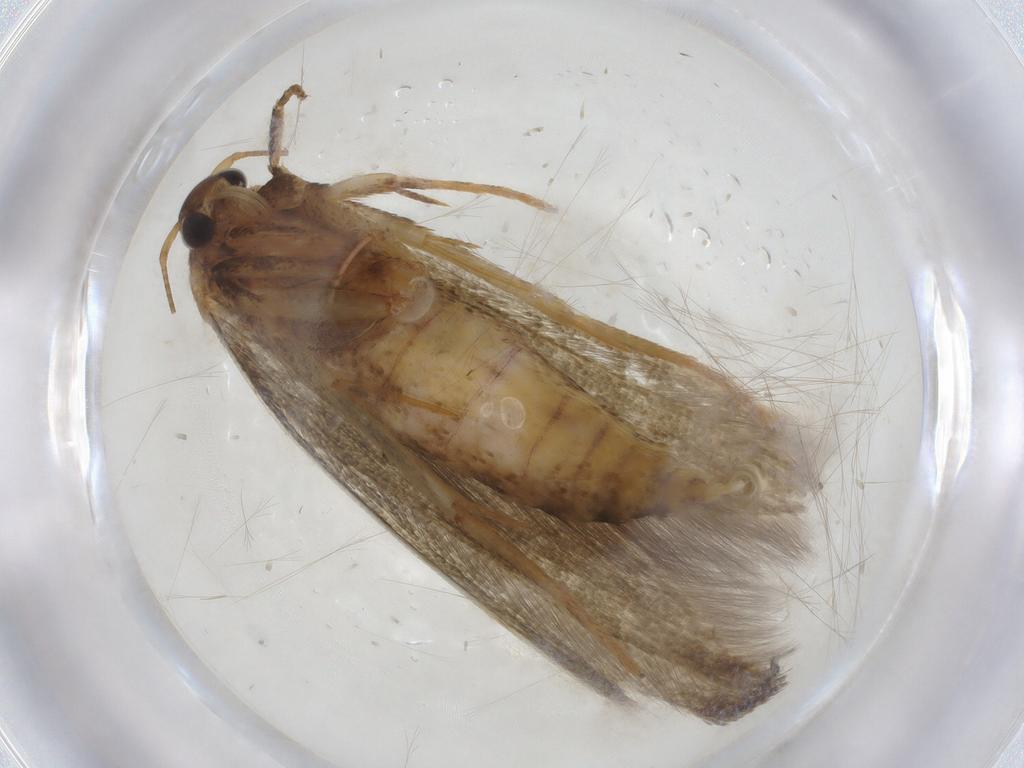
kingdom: Animalia
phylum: Arthropoda
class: Insecta
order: Lepidoptera
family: Blastobasidae
